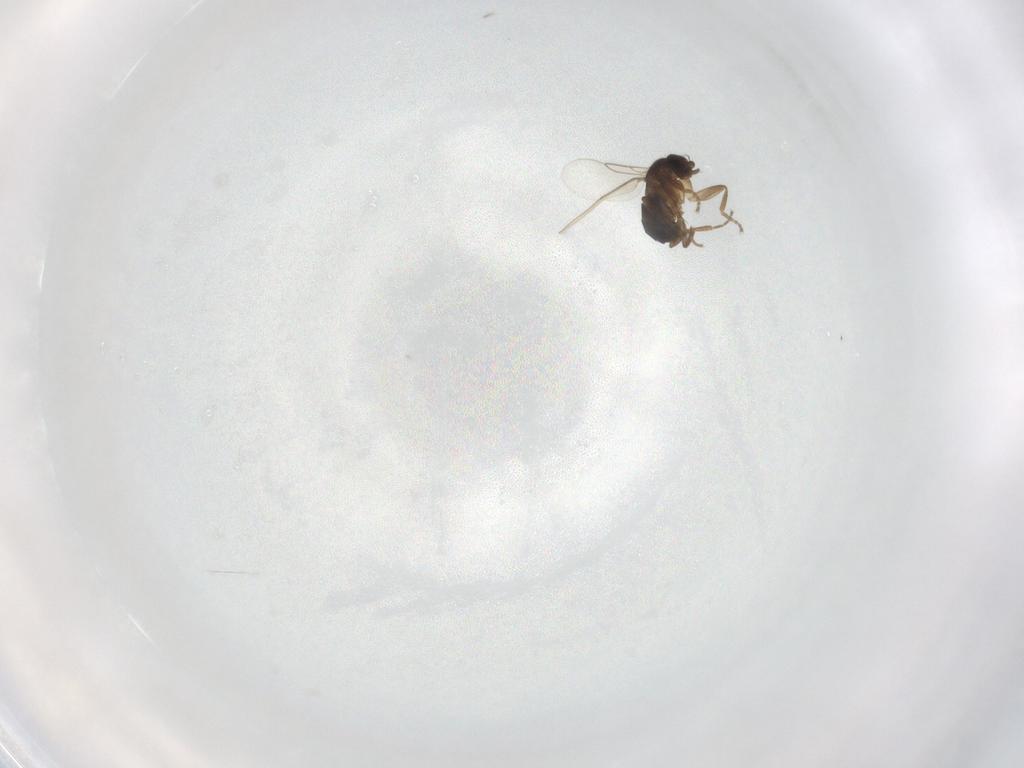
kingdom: Animalia
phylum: Arthropoda
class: Insecta
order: Diptera
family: Phoridae
